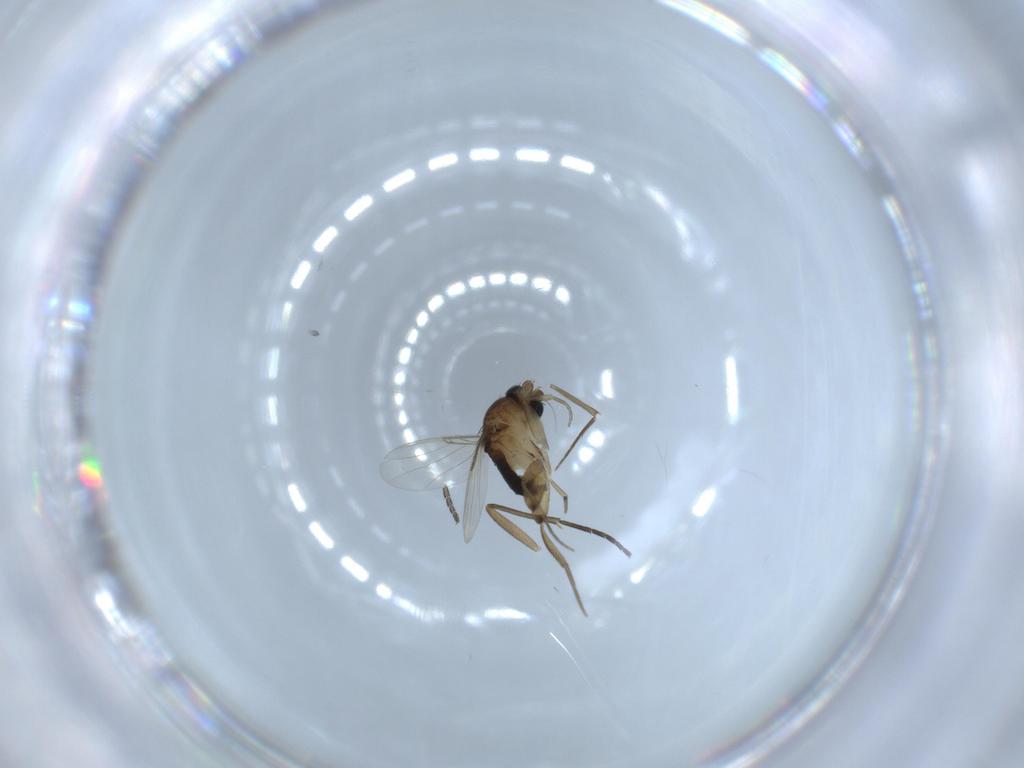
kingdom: Animalia
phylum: Arthropoda
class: Insecta
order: Diptera
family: Phoridae
